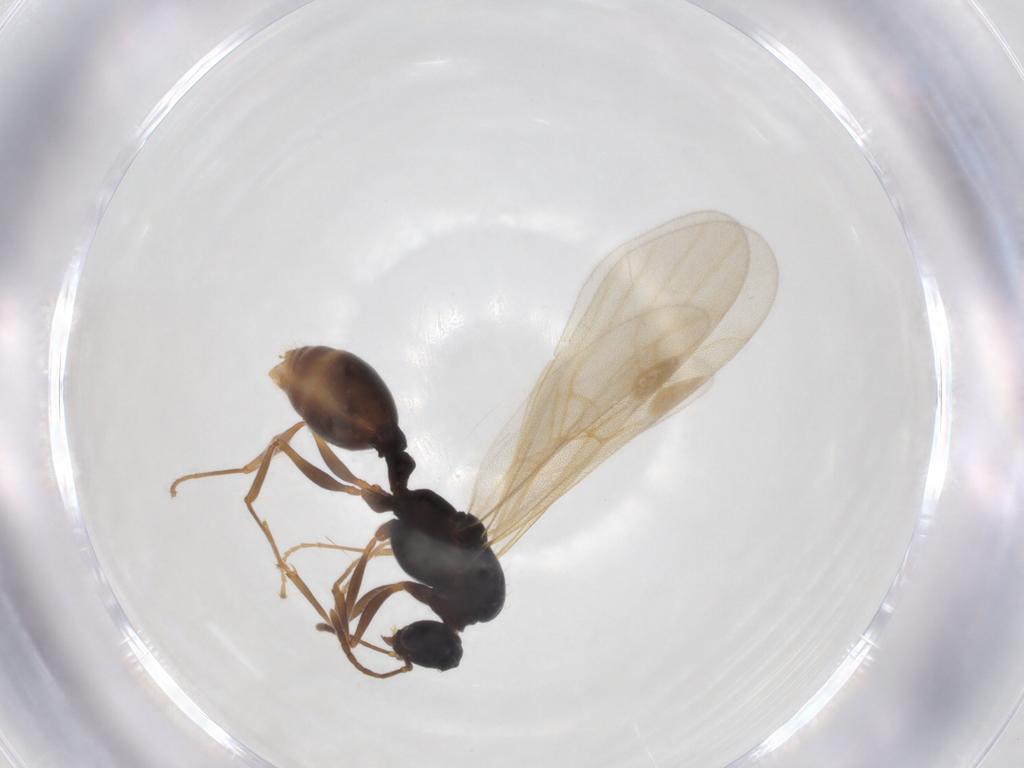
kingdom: Animalia
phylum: Arthropoda
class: Insecta
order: Hymenoptera
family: Formicidae
